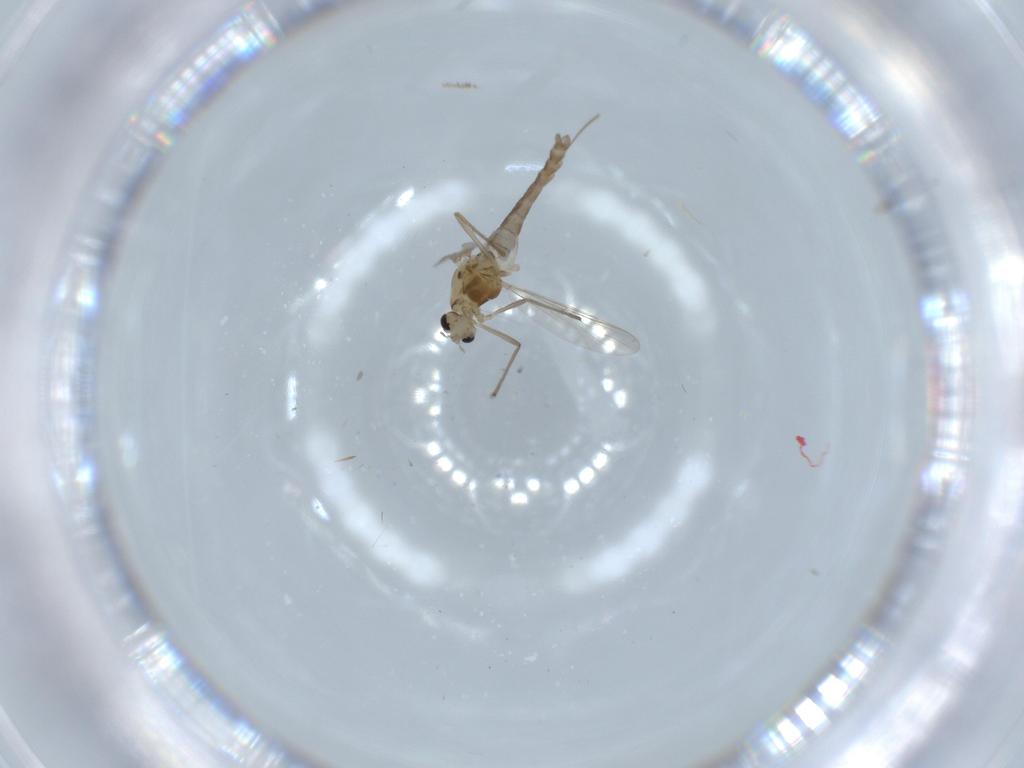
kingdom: Animalia
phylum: Arthropoda
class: Insecta
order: Diptera
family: Chironomidae
